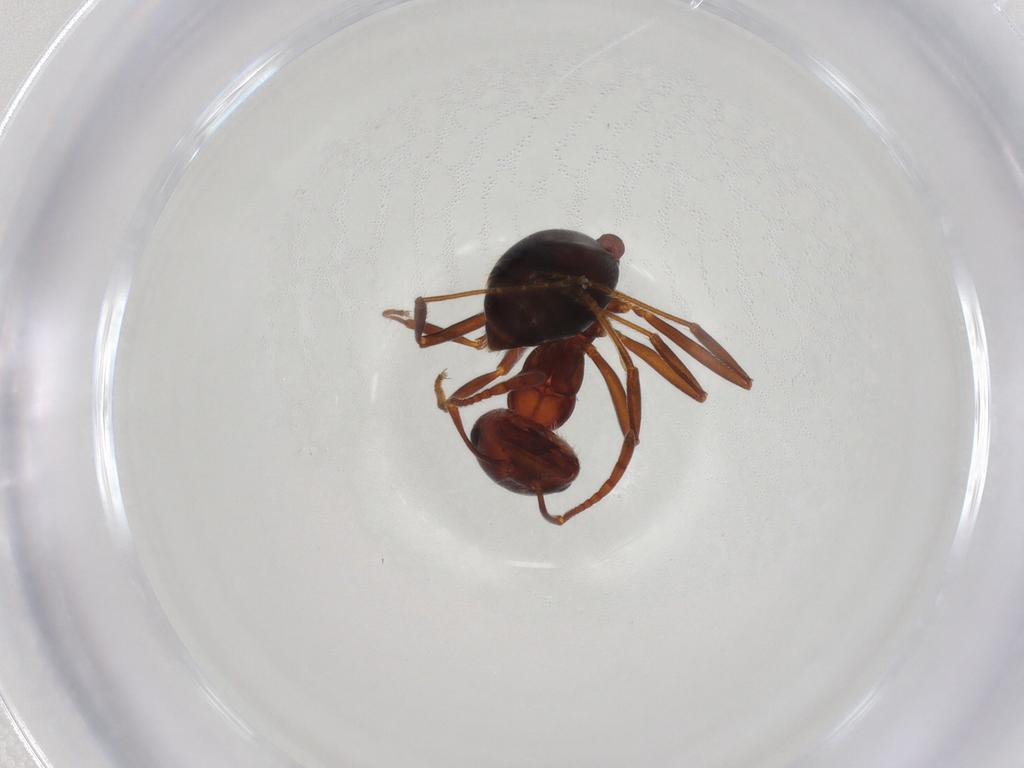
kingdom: Animalia
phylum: Arthropoda
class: Insecta
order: Hymenoptera
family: Formicidae
